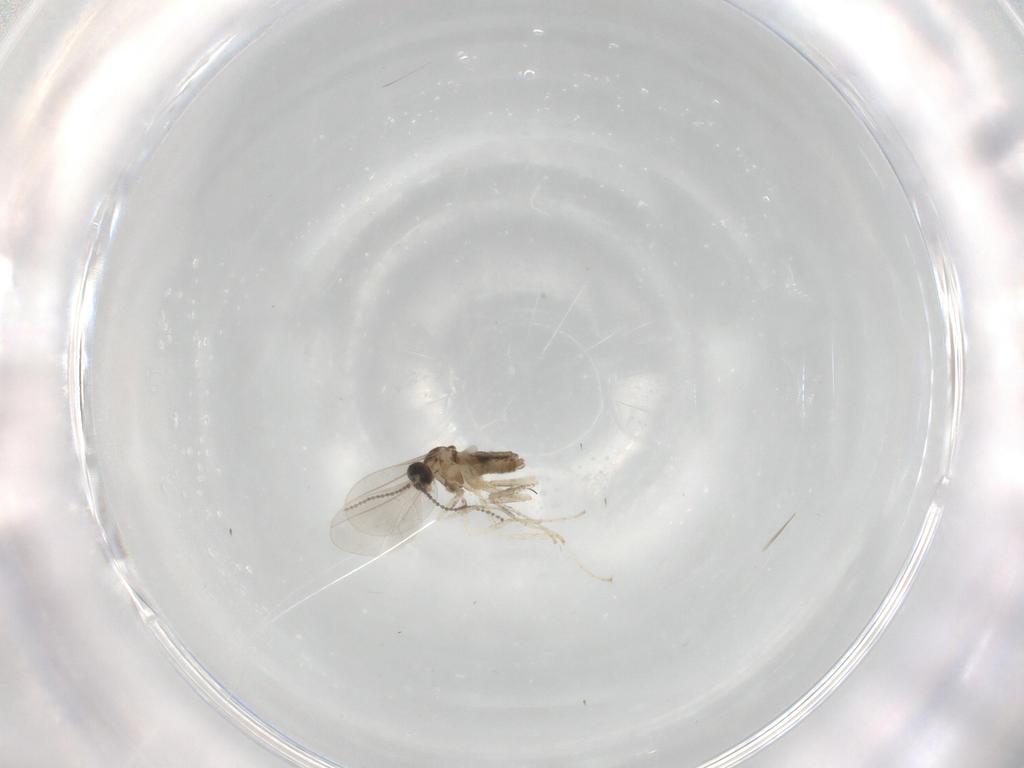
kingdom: Animalia
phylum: Arthropoda
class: Insecta
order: Diptera
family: Cecidomyiidae
